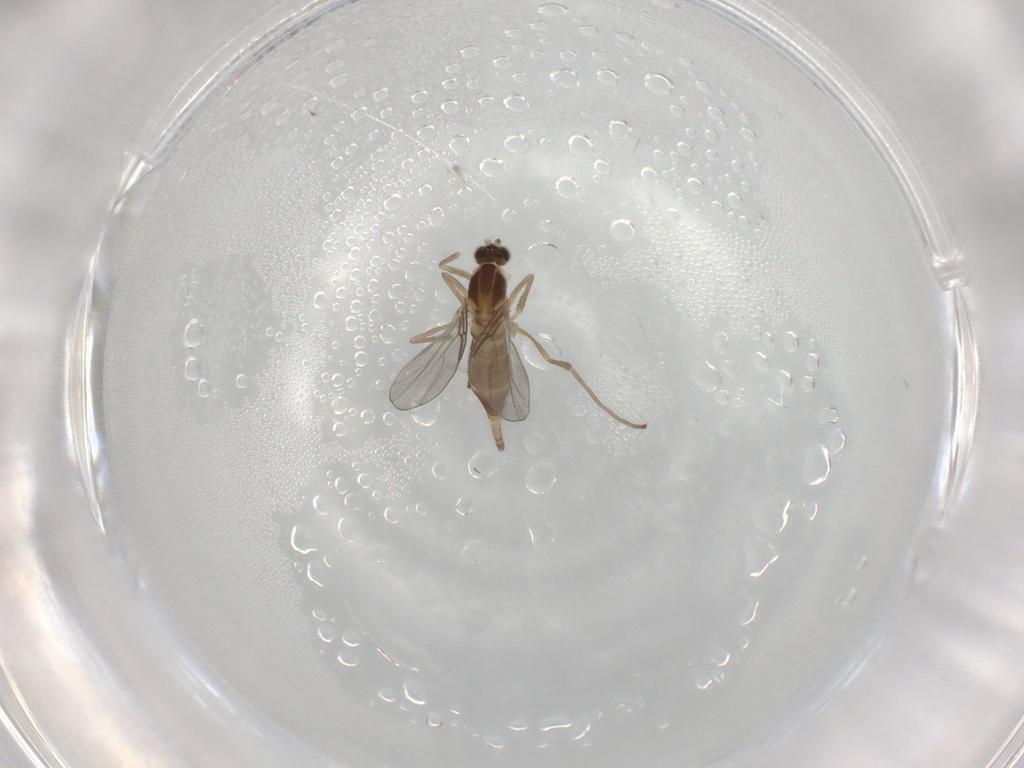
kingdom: Animalia
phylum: Arthropoda
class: Insecta
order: Diptera
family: Cecidomyiidae
